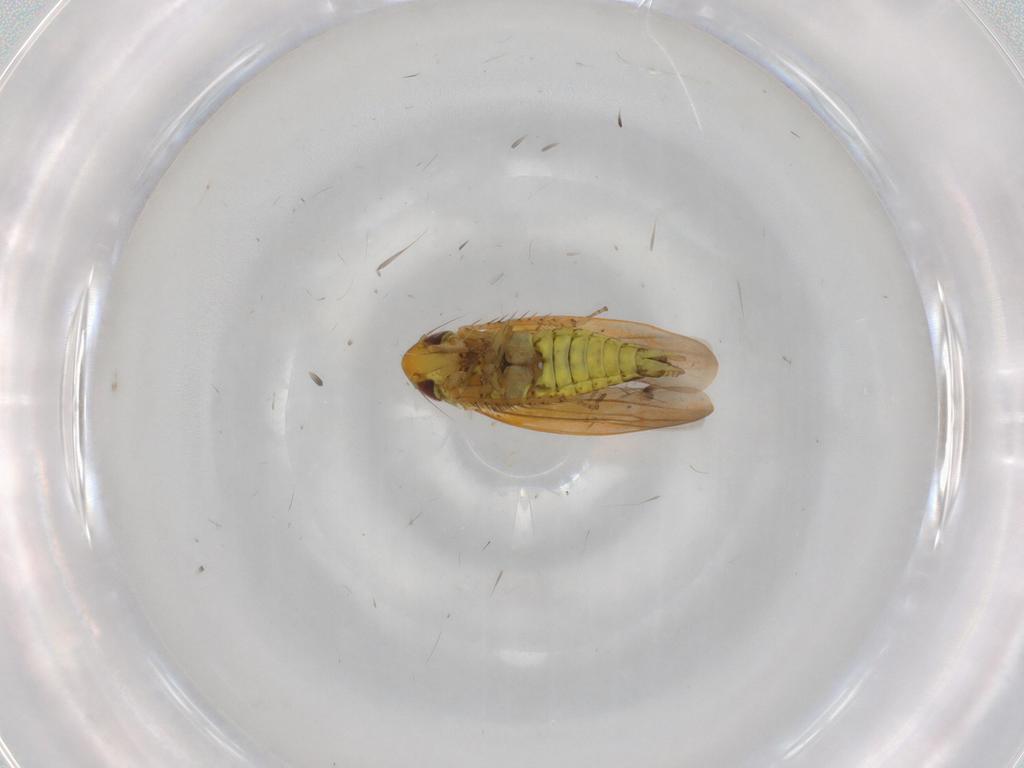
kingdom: Animalia
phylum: Arthropoda
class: Insecta
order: Hemiptera
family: Cicadellidae
